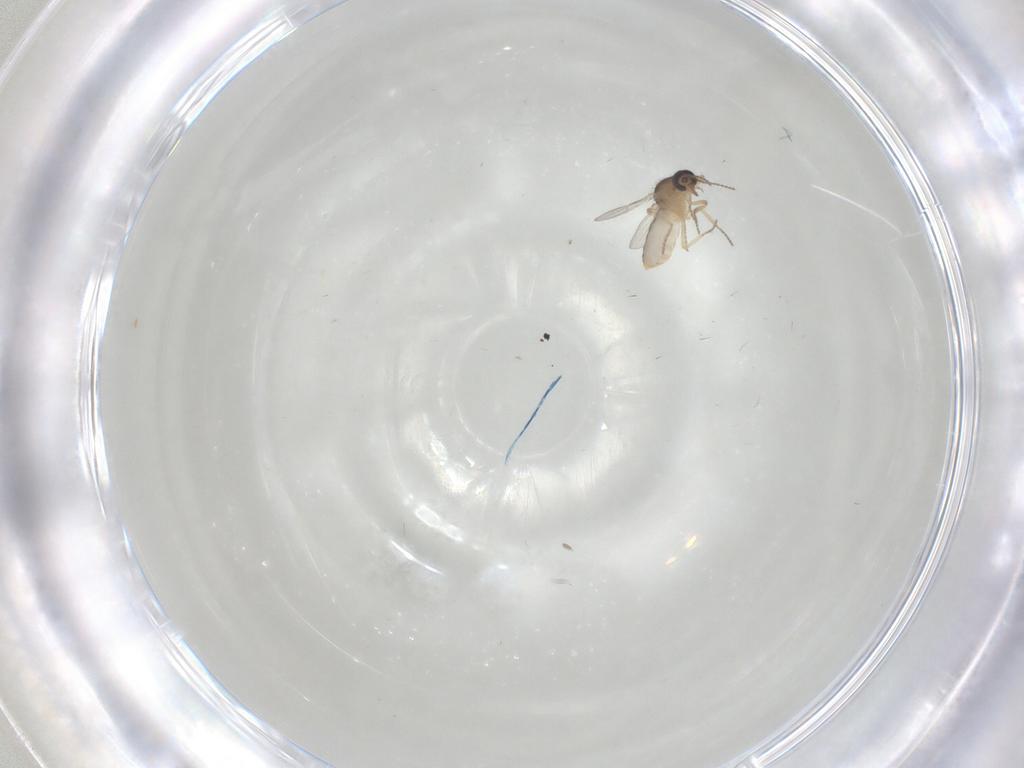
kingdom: Animalia
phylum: Arthropoda
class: Insecta
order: Diptera
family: Ceratopogonidae
